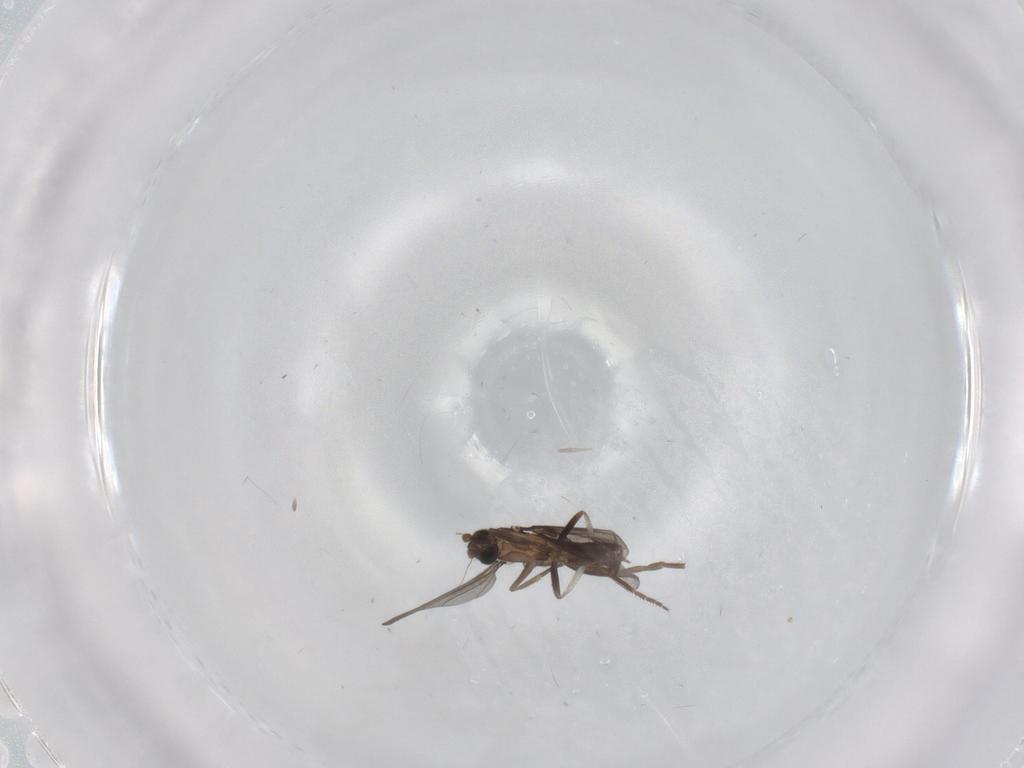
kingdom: Animalia
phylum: Arthropoda
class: Insecta
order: Diptera
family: Phoridae
